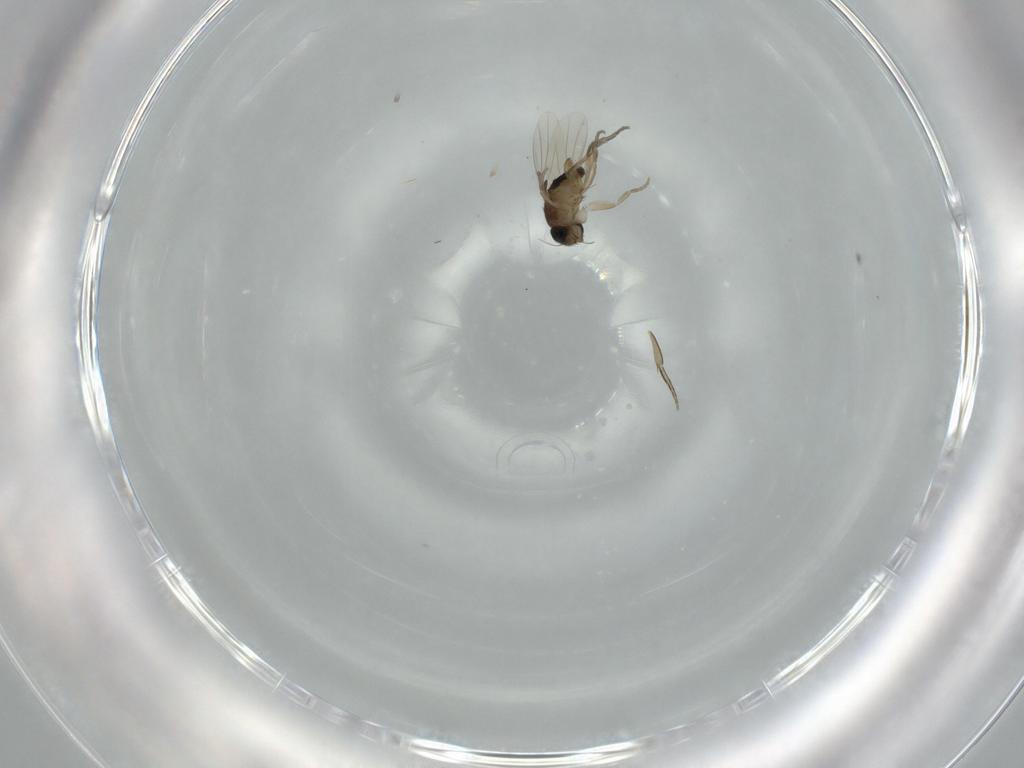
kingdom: Animalia
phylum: Arthropoda
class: Insecta
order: Diptera
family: Phoridae
